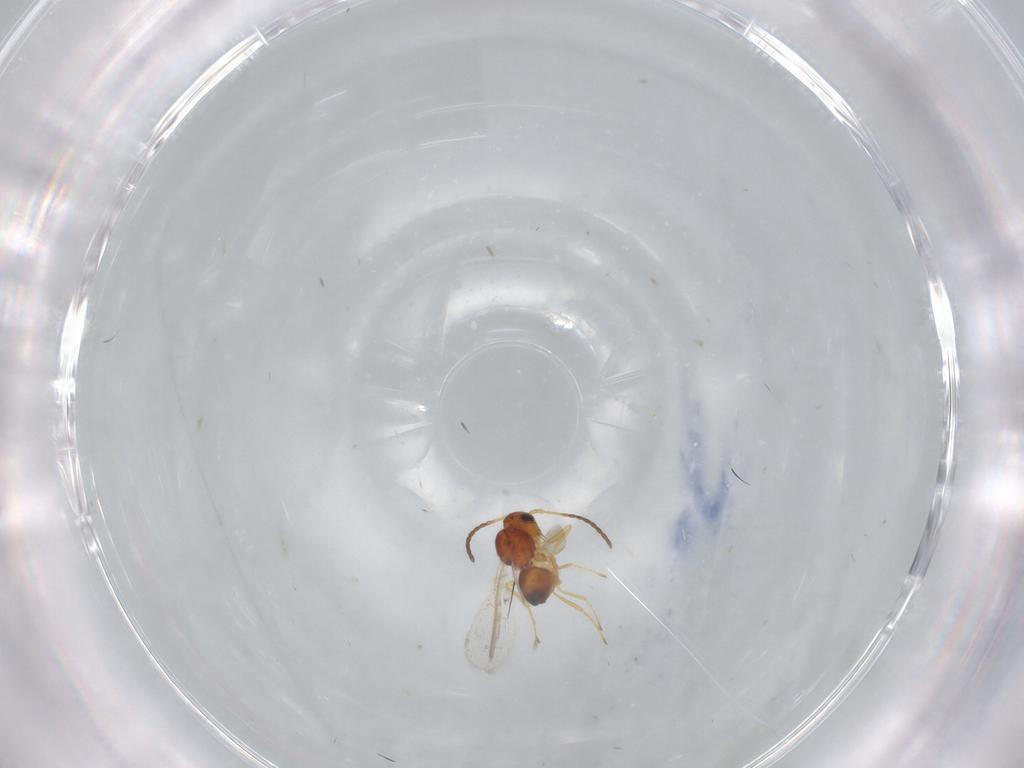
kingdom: Animalia
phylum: Arthropoda
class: Insecta
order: Hymenoptera
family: Figitidae
